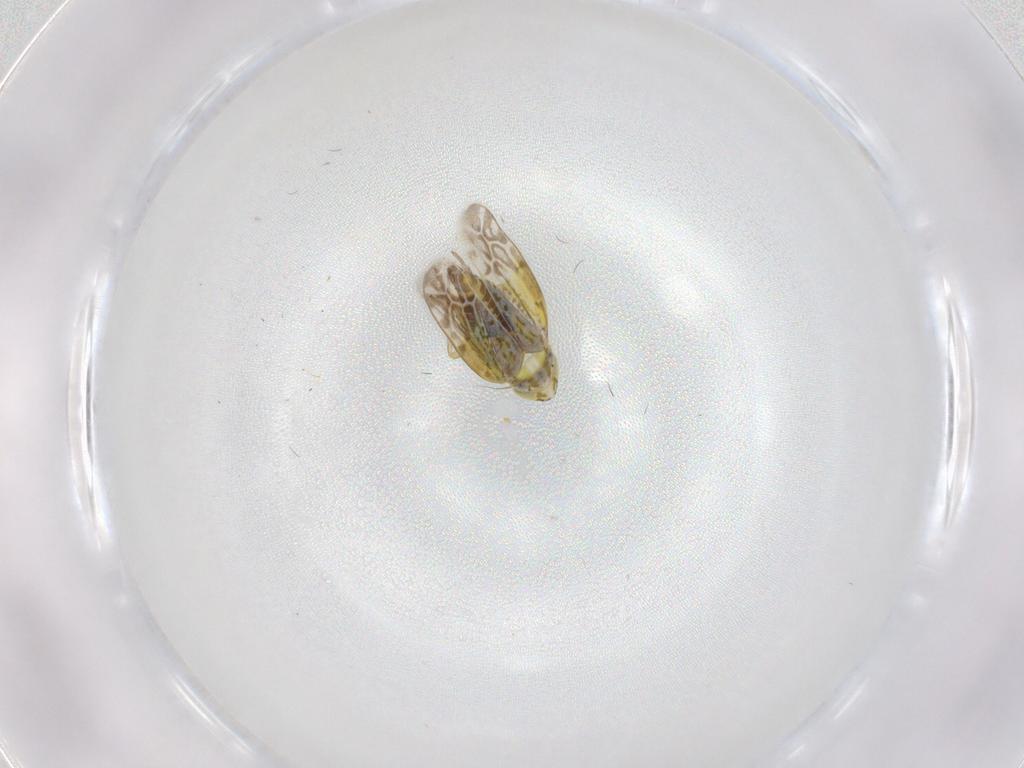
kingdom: Animalia
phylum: Arthropoda
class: Insecta
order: Hemiptera
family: Cicadellidae
